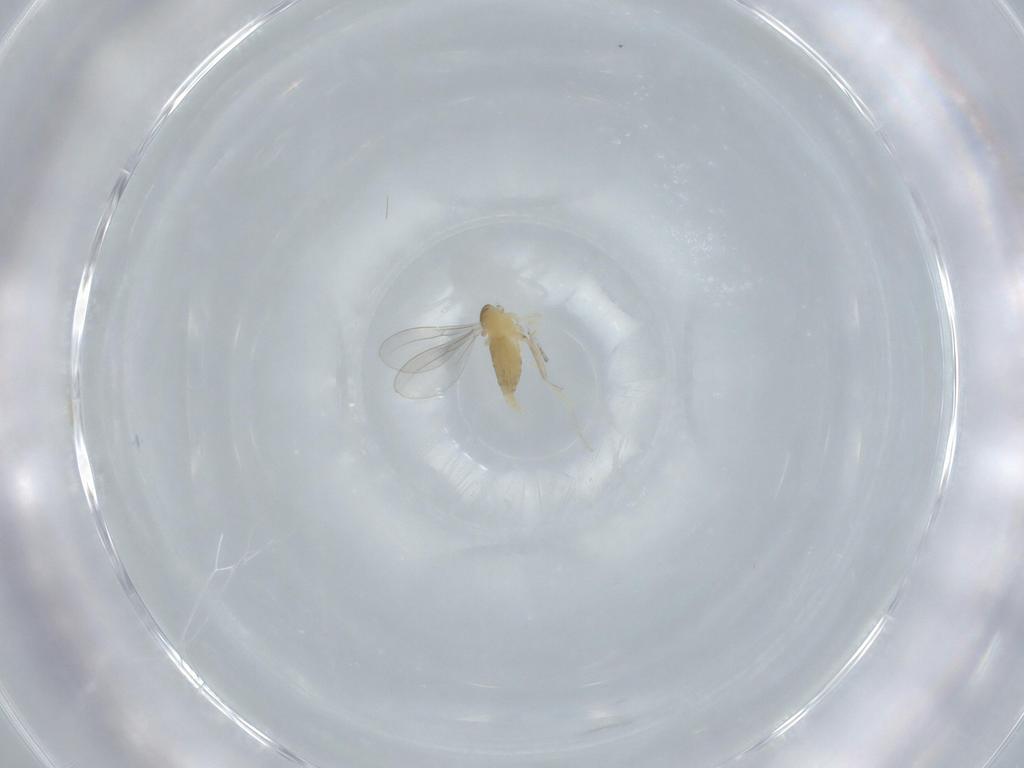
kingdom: Animalia
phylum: Arthropoda
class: Insecta
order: Diptera
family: Cecidomyiidae
